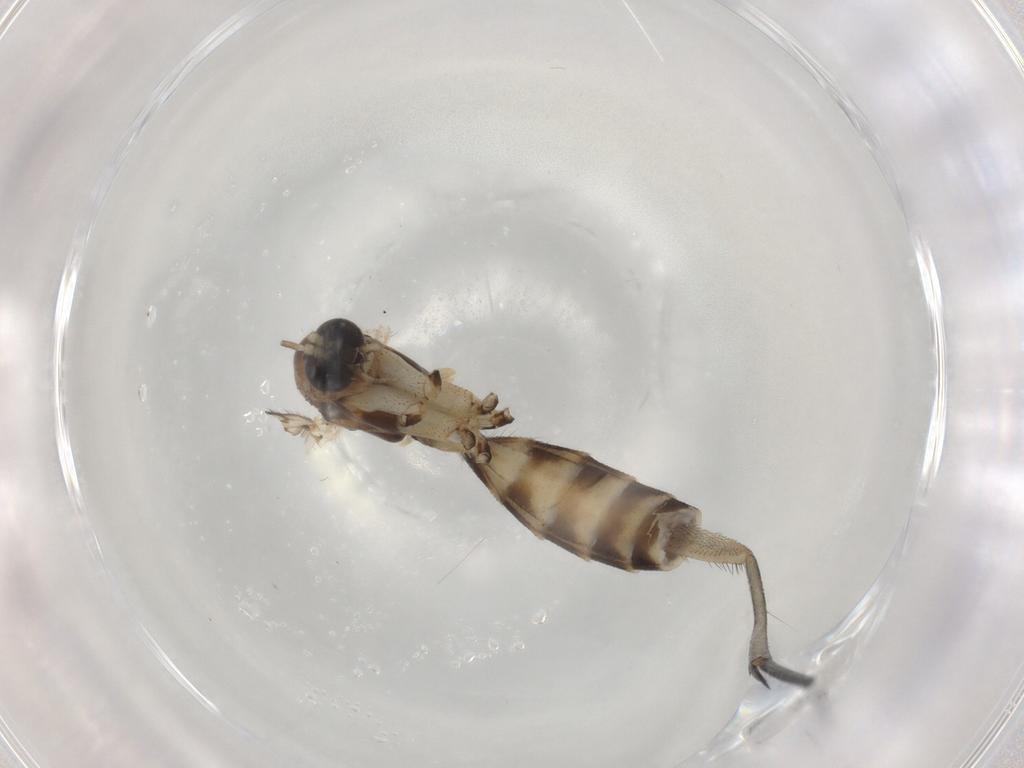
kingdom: Animalia
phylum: Arthropoda
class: Insecta
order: Diptera
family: Mycetophilidae
